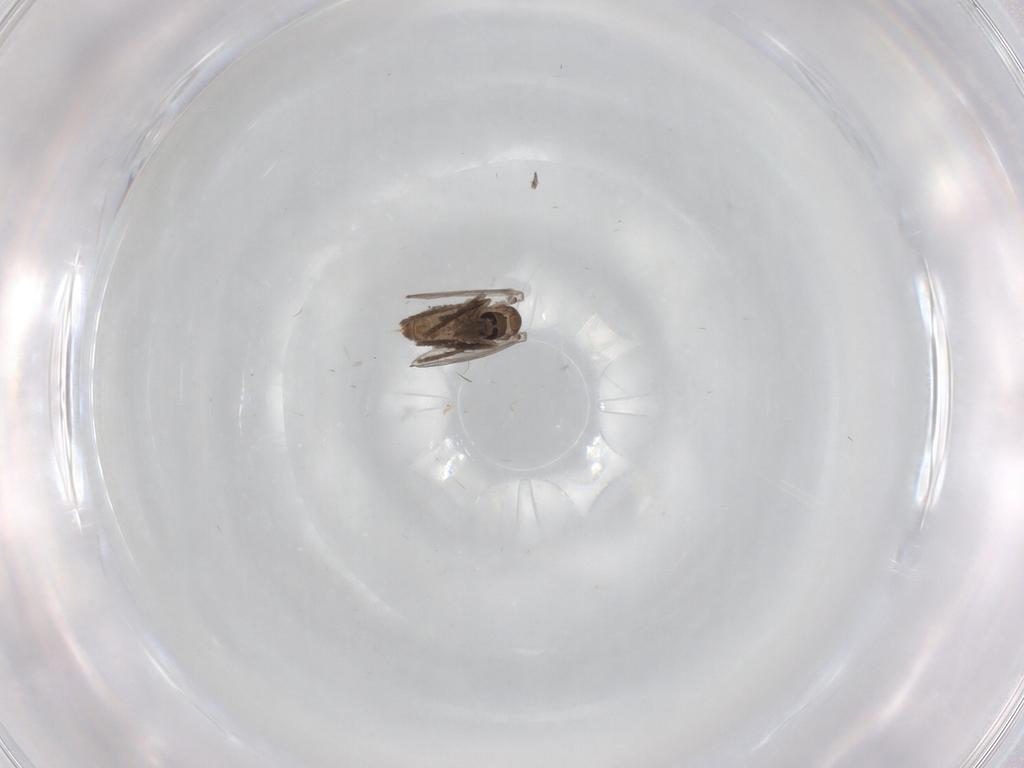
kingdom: Animalia
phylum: Arthropoda
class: Insecta
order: Diptera
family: Psychodidae
